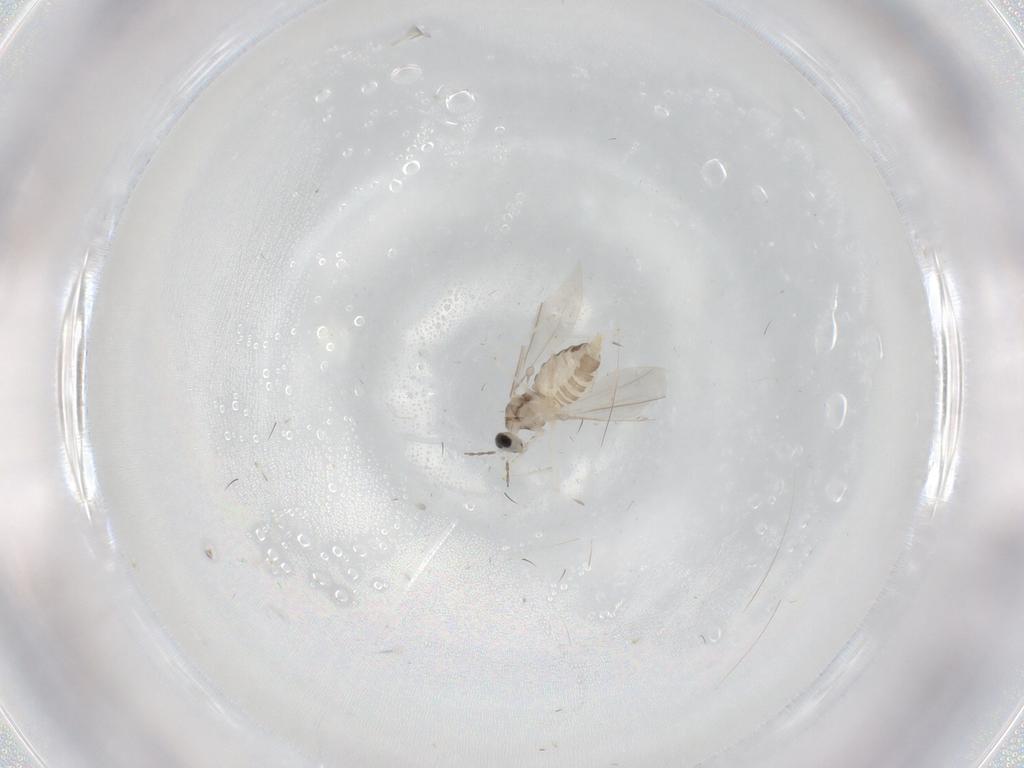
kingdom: Animalia
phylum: Arthropoda
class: Insecta
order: Diptera
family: Cecidomyiidae
